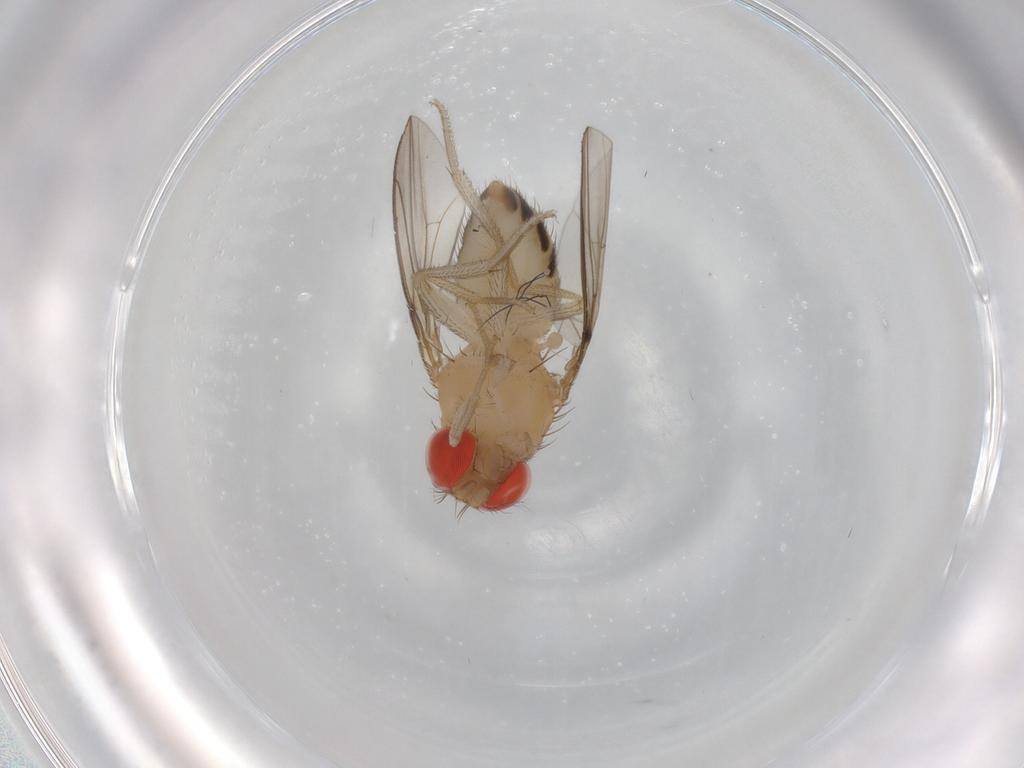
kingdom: Animalia
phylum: Arthropoda
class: Insecta
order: Diptera
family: Drosophilidae
